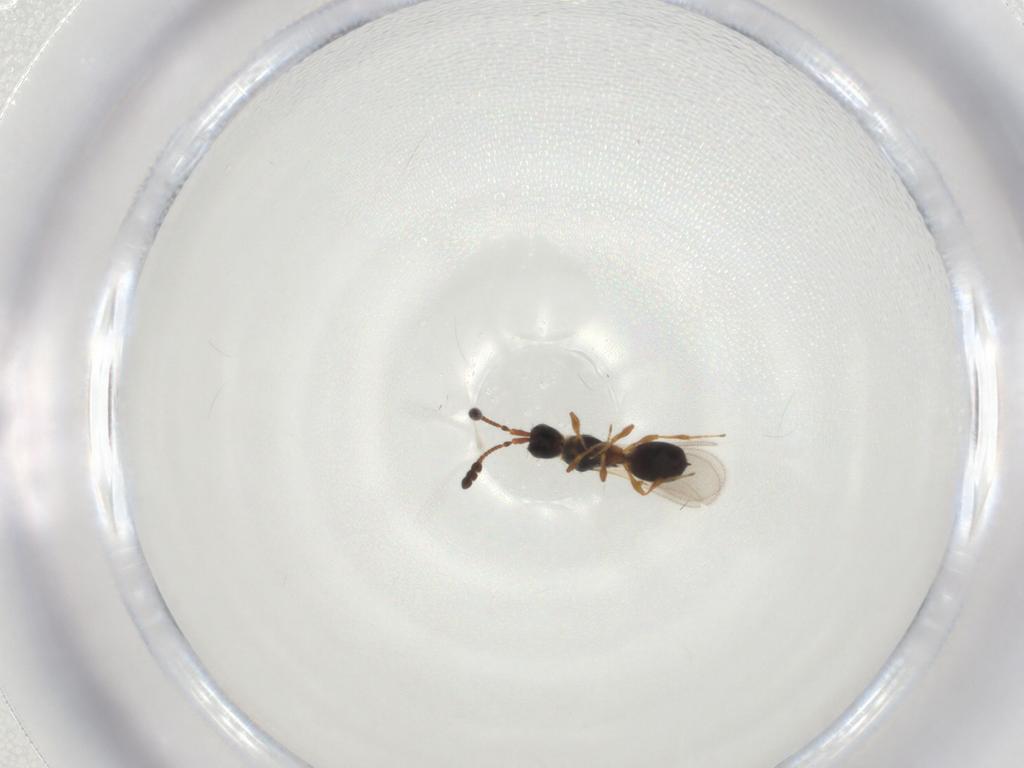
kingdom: Animalia
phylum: Arthropoda
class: Insecta
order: Hymenoptera
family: Diapriidae
